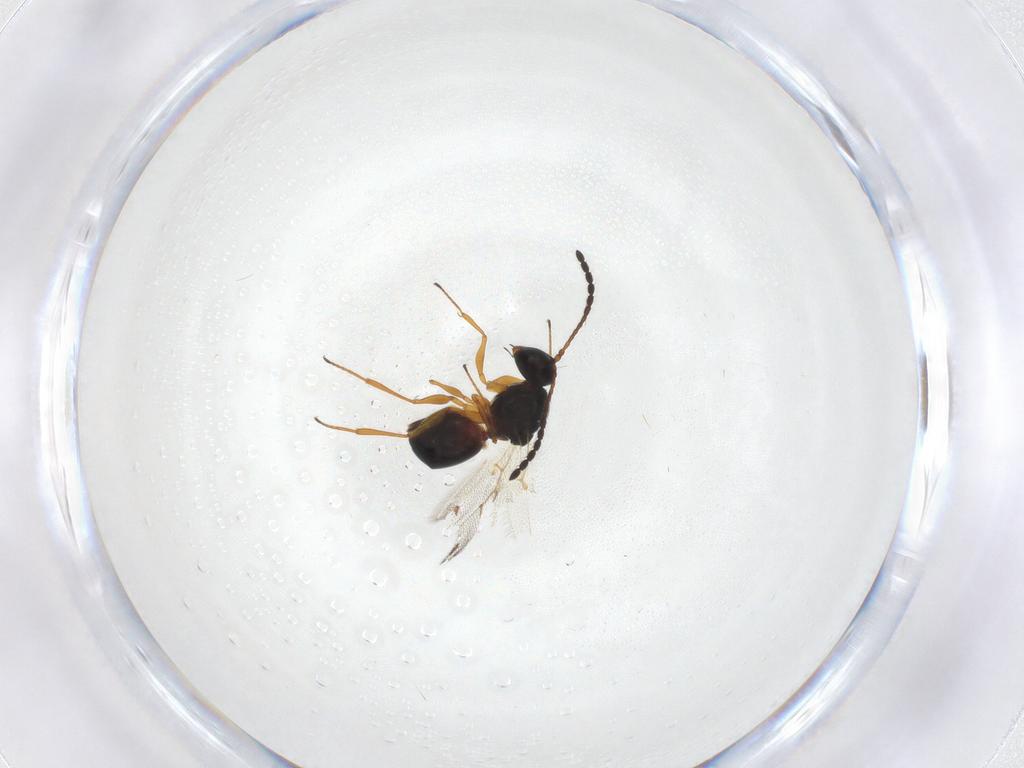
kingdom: Animalia
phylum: Arthropoda
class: Insecta
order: Hymenoptera
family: Figitidae
